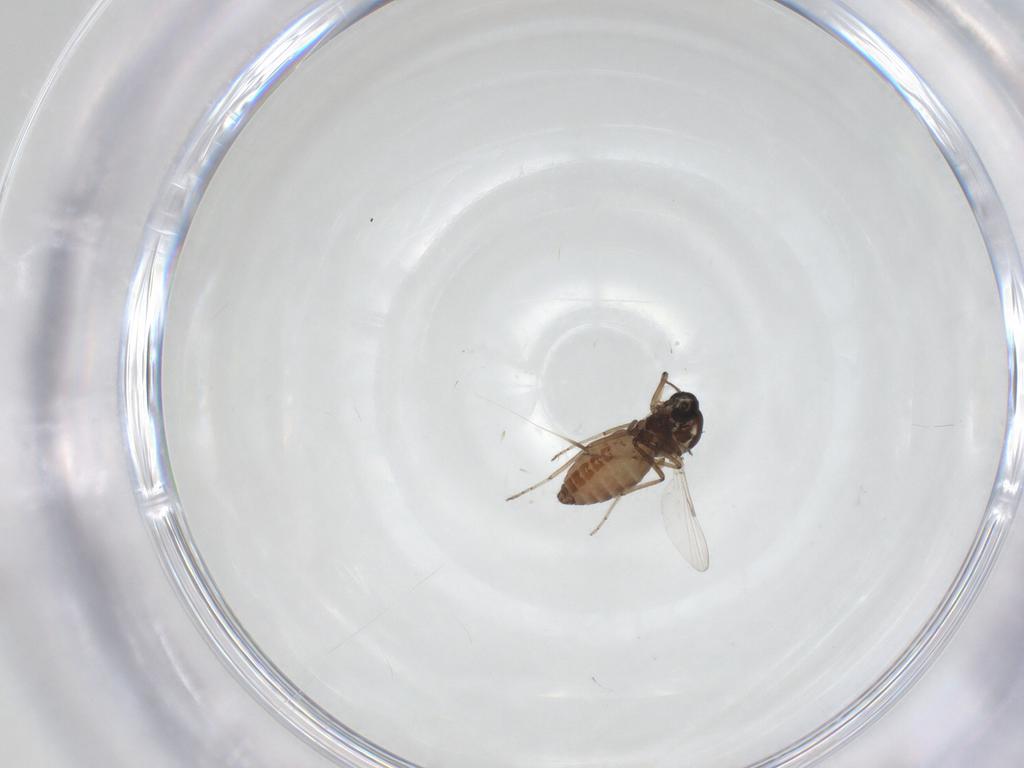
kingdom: Animalia
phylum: Arthropoda
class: Insecta
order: Diptera
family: Ceratopogonidae
